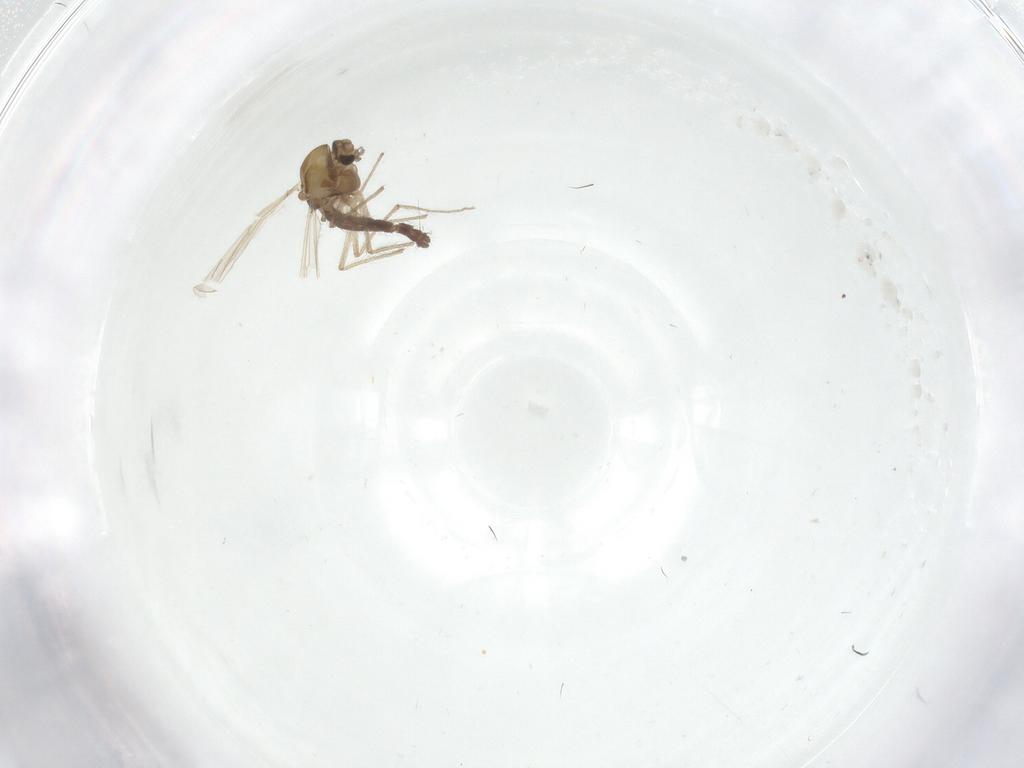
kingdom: Animalia
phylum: Arthropoda
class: Insecta
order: Diptera
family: Chironomidae
